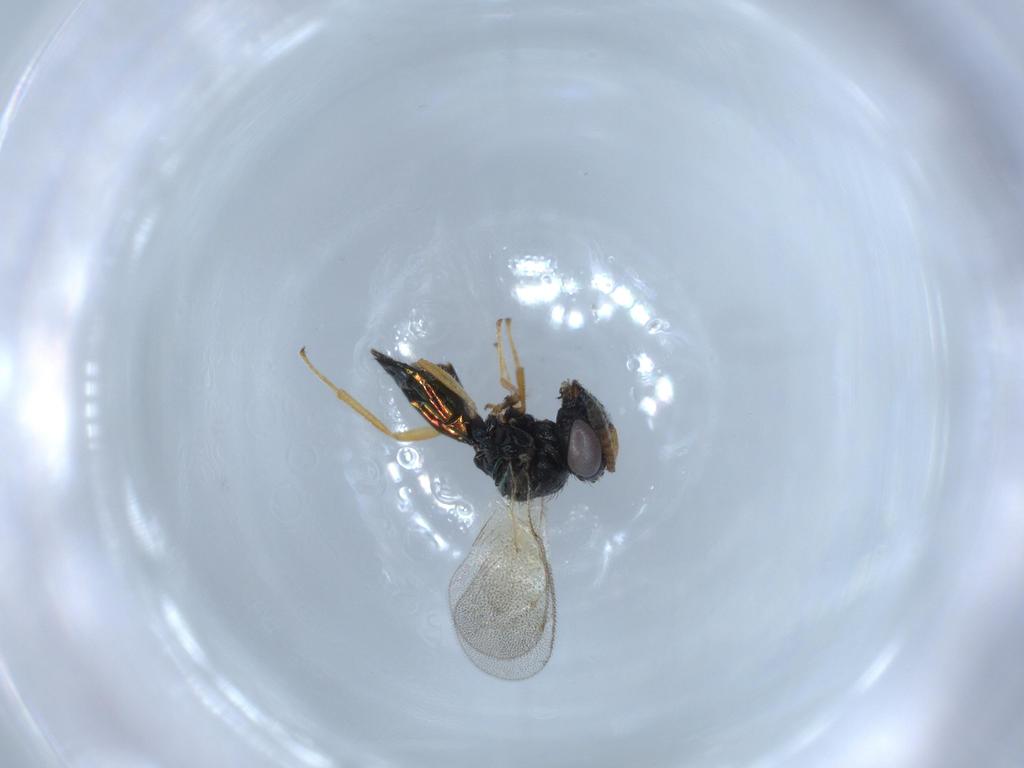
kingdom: Animalia
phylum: Arthropoda
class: Insecta
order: Hymenoptera
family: Pteromalidae
